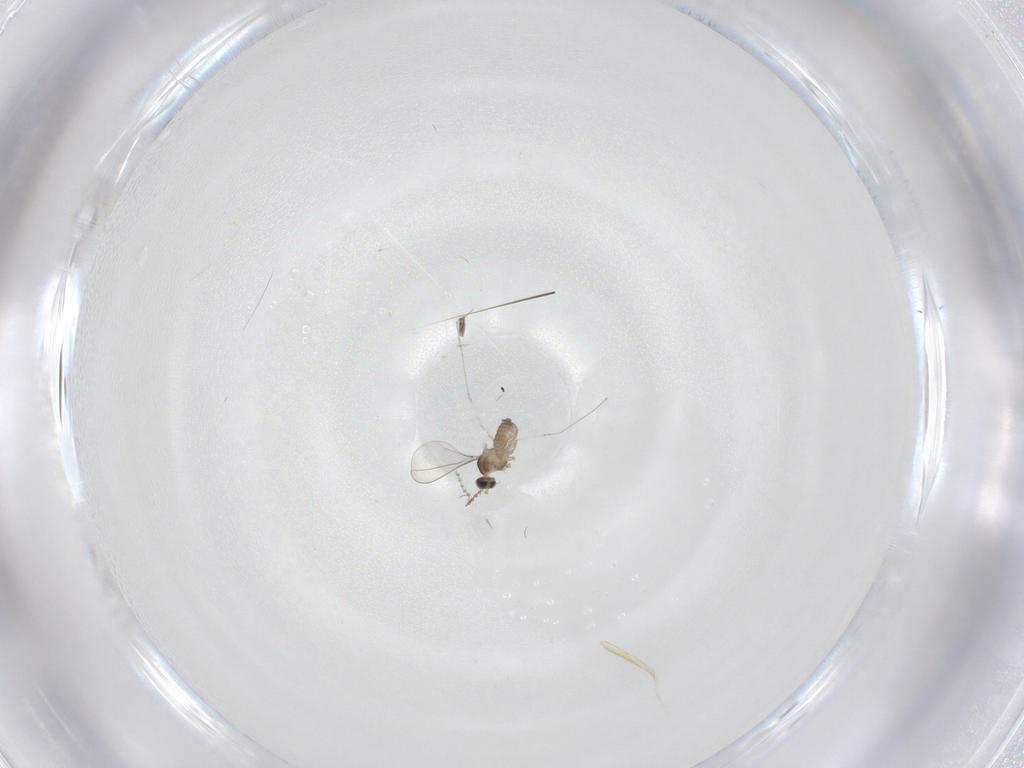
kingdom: Animalia
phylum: Arthropoda
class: Insecta
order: Diptera
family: Cecidomyiidae
